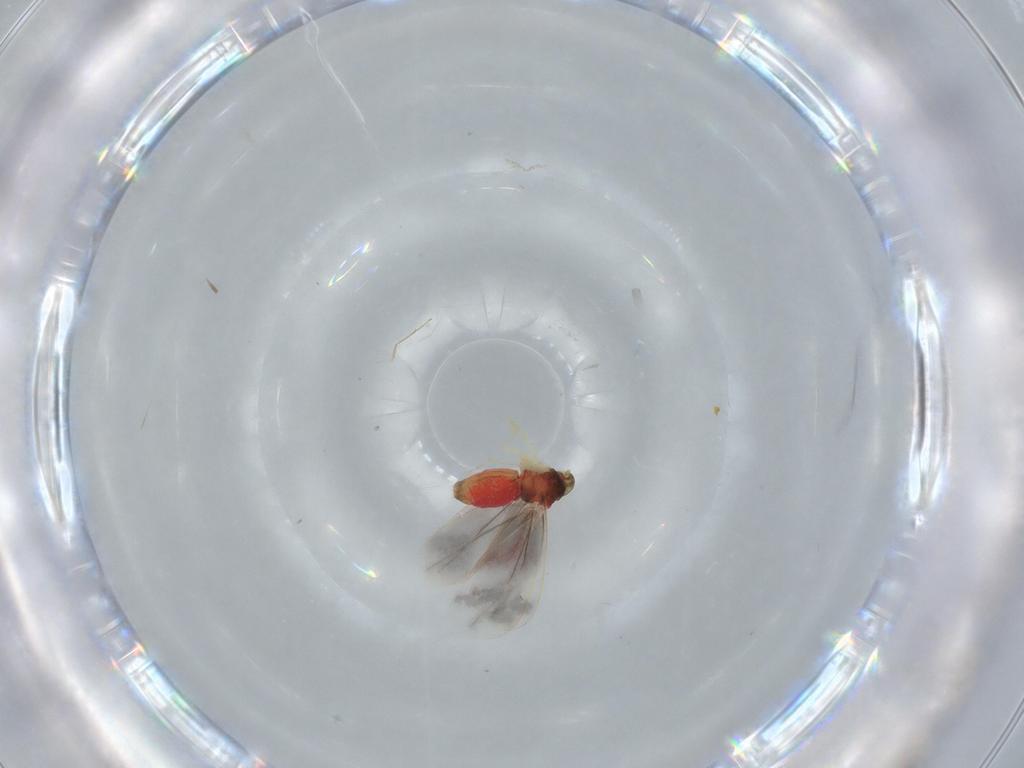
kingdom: Animalia
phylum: Arthropoda
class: Insecta
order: Hemiptera
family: Aleyrodidae
